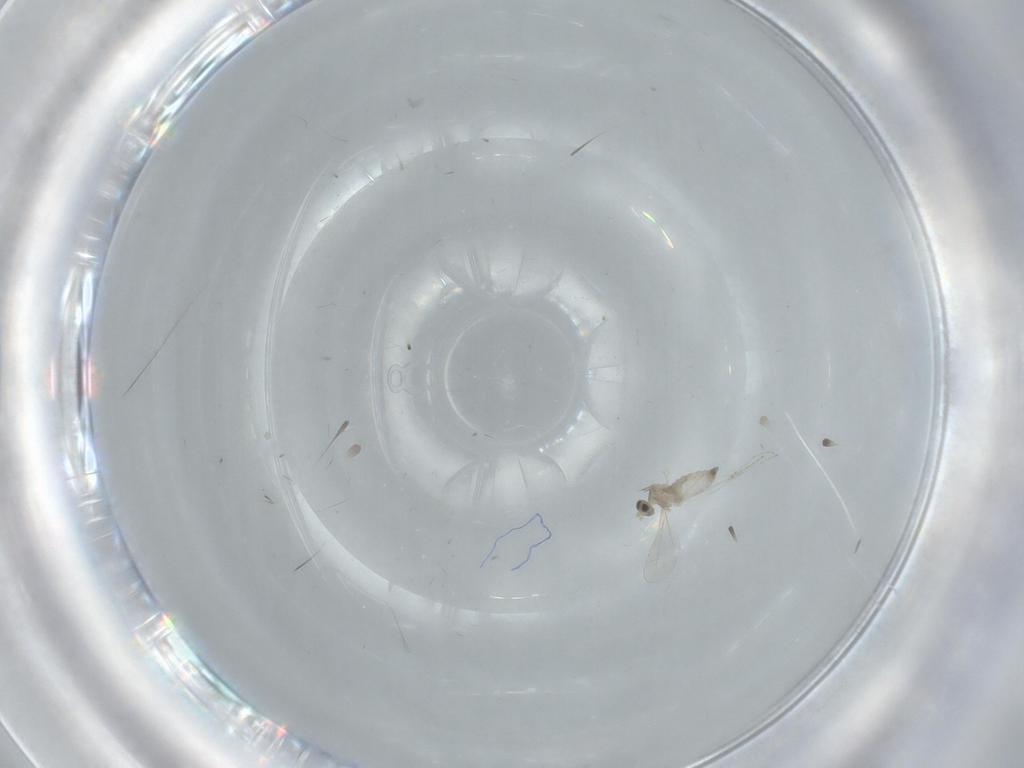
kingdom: Animalia
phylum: Arthropoda
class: Insecta
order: Diptera
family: Cecidomyiidae
